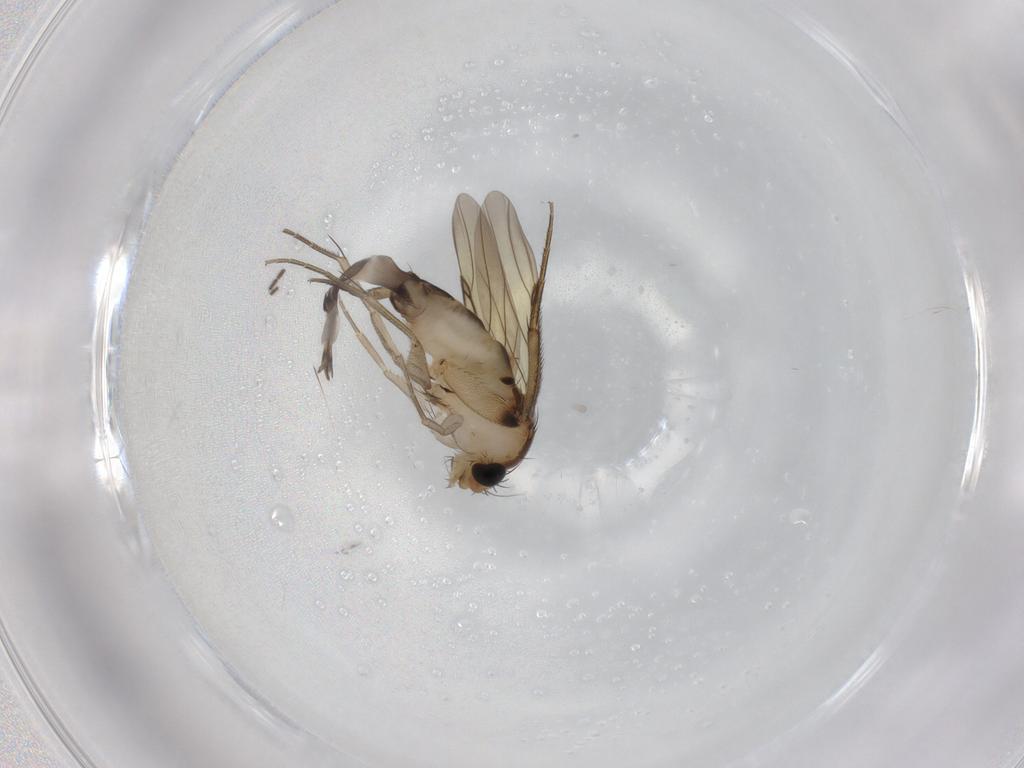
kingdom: Animalia
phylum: Arthropoda
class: Insecta
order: Diptera
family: Phoridae
